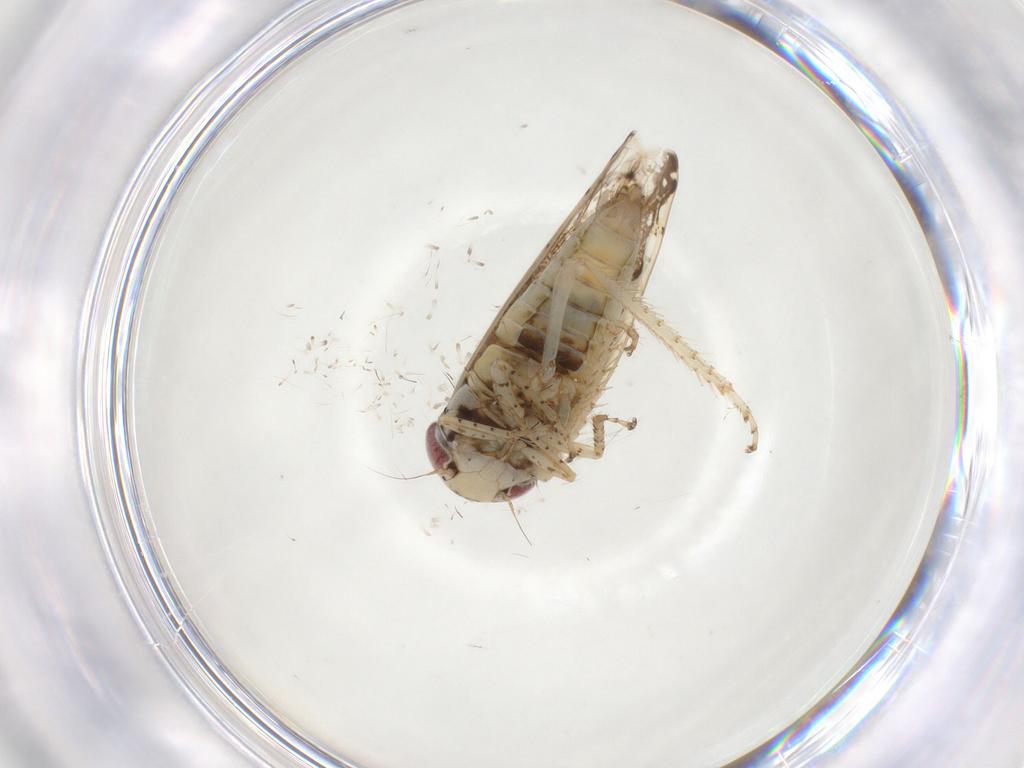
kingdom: Animalia
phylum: Arthropoda
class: Insecta
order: Hemiptera
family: Cicadellidae
